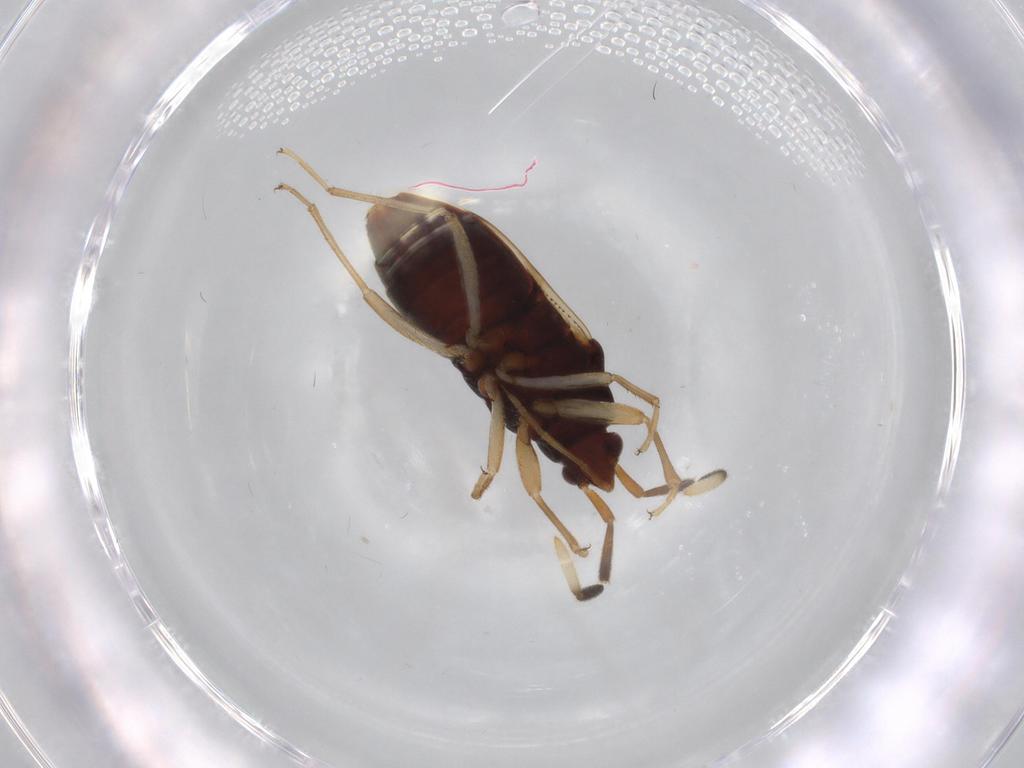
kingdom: Animalia
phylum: Arthropoda
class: Insecta
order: Hemiptera
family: Rhyparochromidae
